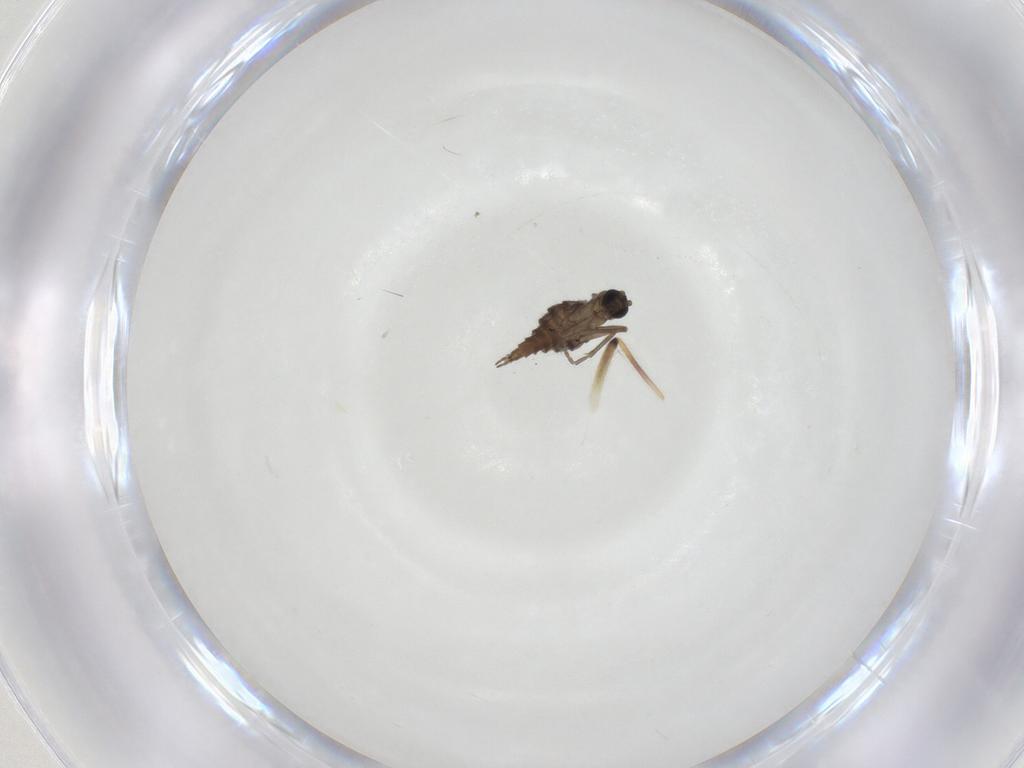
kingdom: Animalia
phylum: Arthropoda
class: Insecta
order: Diptera
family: Sciaridae
